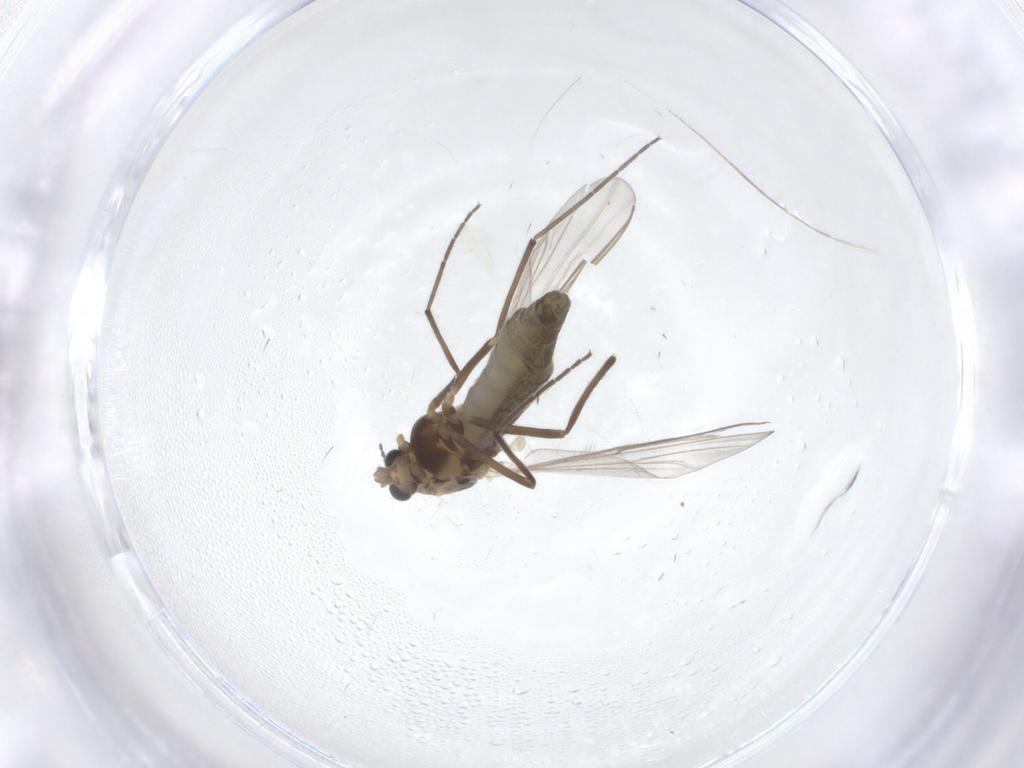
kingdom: Animalia
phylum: Arthropoda
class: Insecta
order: Diptera
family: Chironomidae
